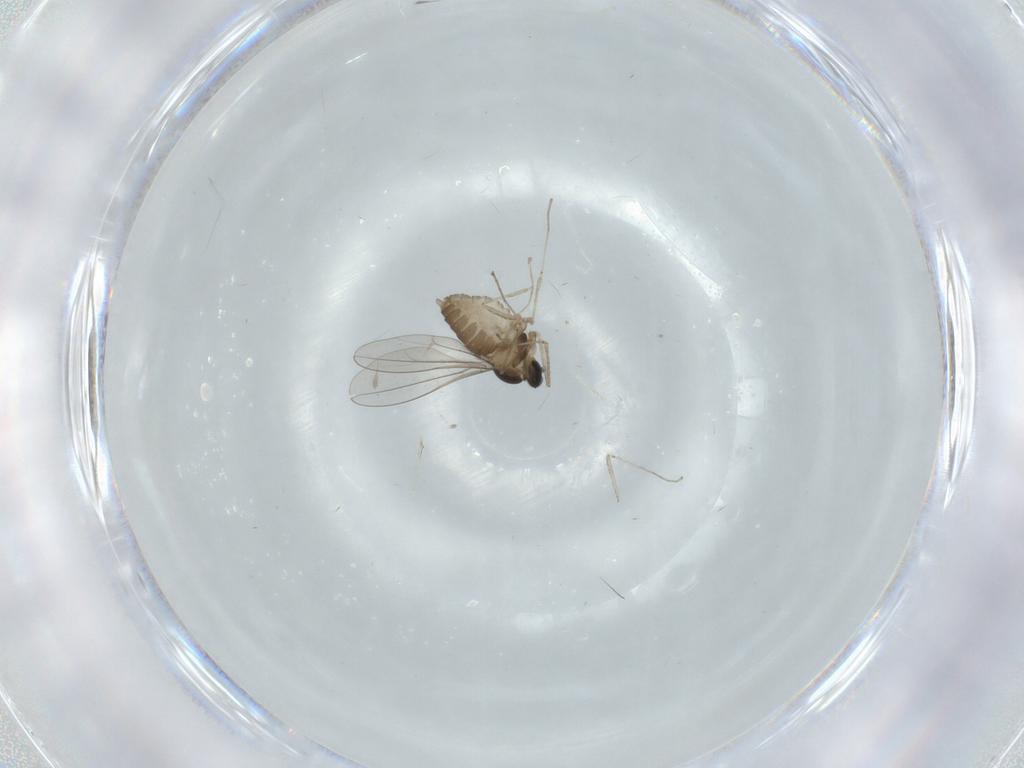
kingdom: Animalia
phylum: Arthropoda
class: Insecta
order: Diptera
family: Cecidomyiidae
